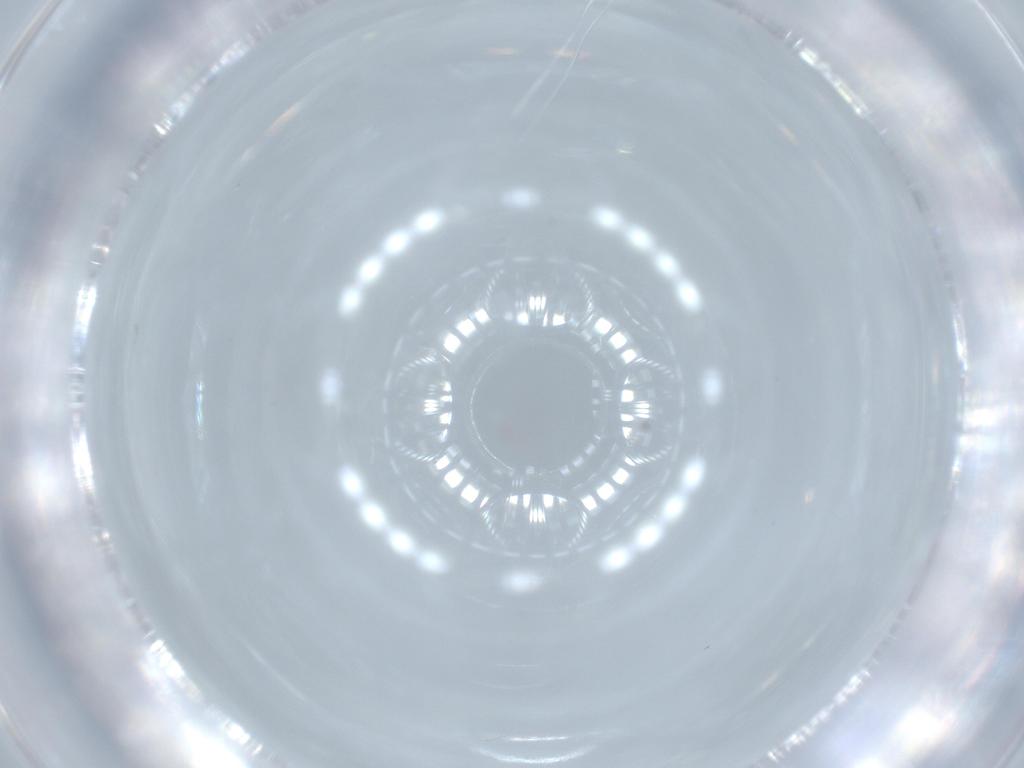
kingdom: Animalia
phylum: Arthropoda
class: Insecta
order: Coleoptera
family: Mordellidae
